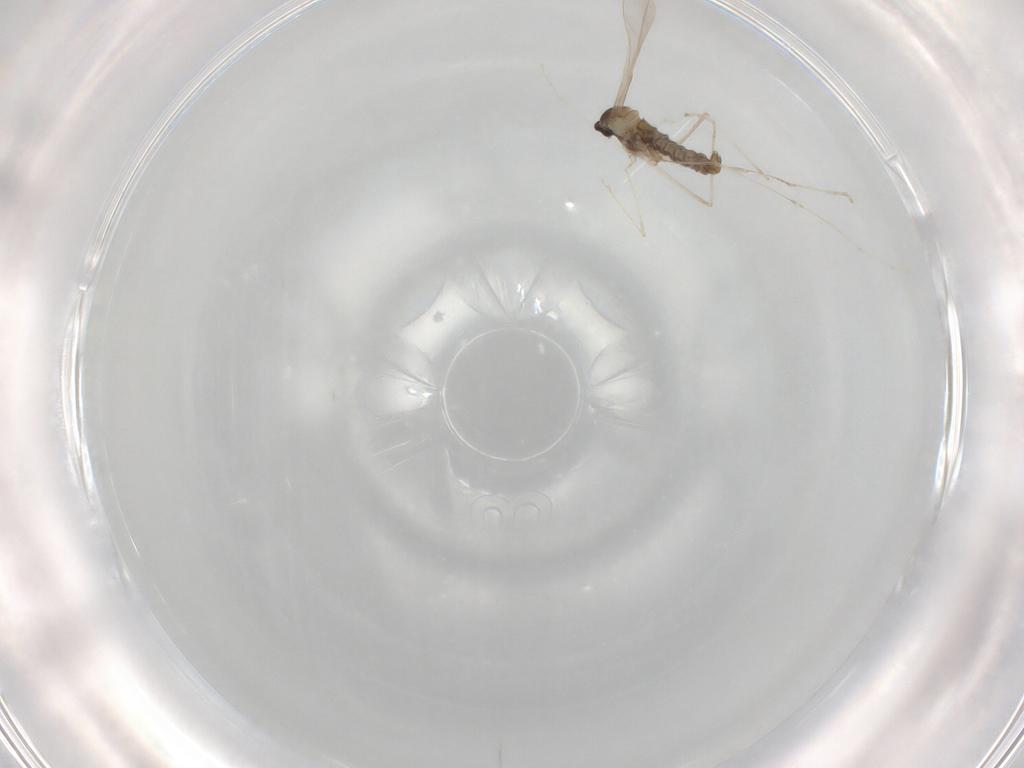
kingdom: Animalia
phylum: Arthropoda
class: Insecta
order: Diptera
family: Cecidomyiidae
